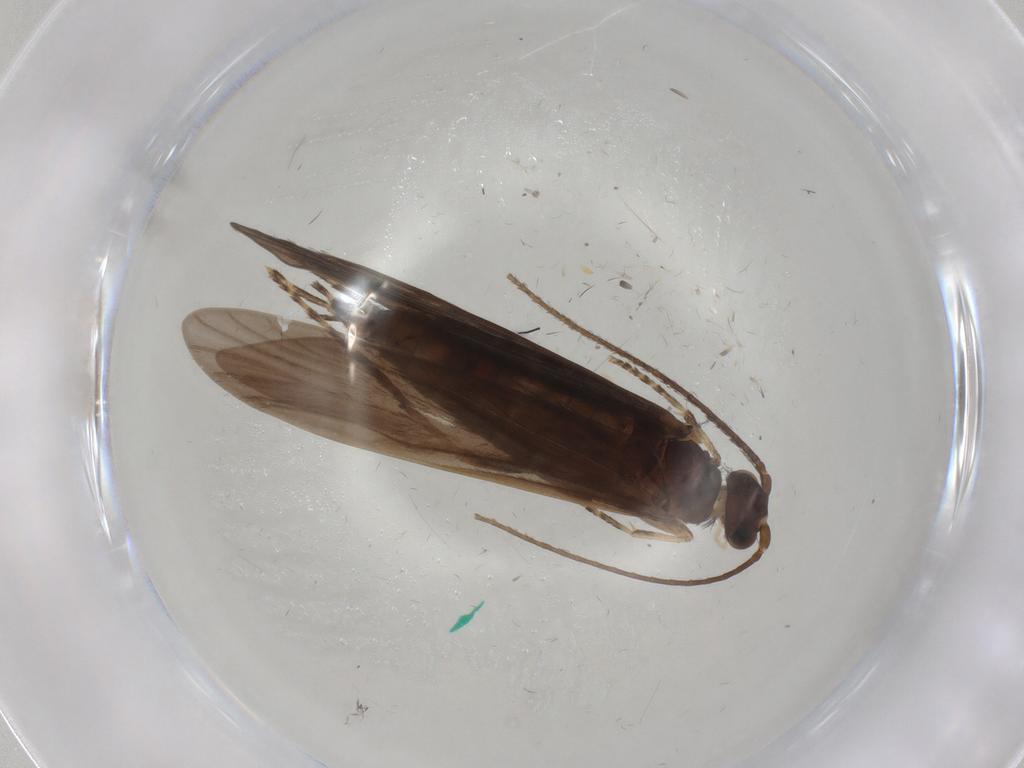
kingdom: Animalia
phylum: Arthropoda
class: Insecta
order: Trichoptera
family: Xiphocentronidae
